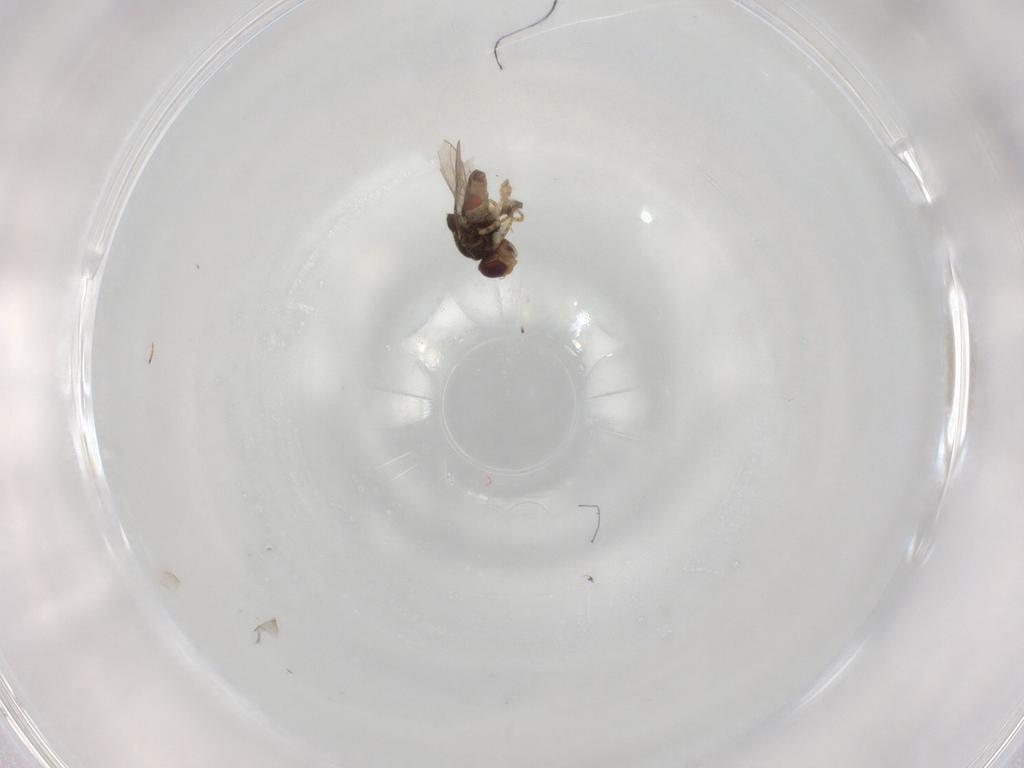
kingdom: Animalia
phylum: Arthropoda
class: Insecta
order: Diptera
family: Chloropidae
